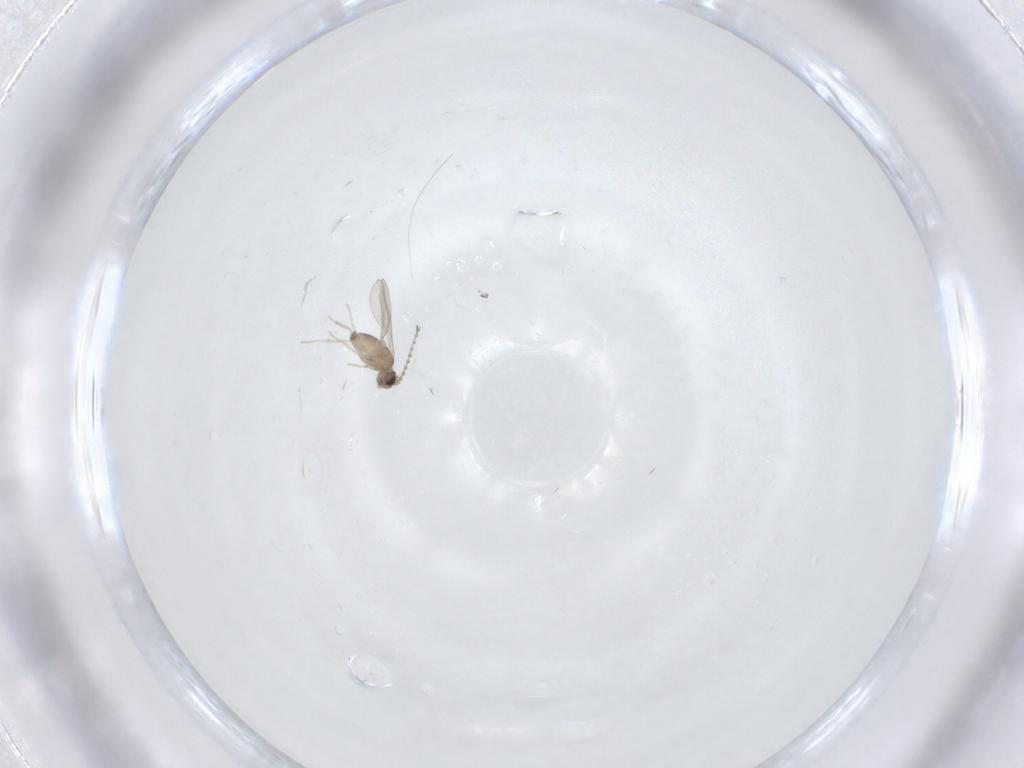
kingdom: Animalia
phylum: Arthropoda
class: Insecta
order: Diptera
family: Ceratopogonidae
